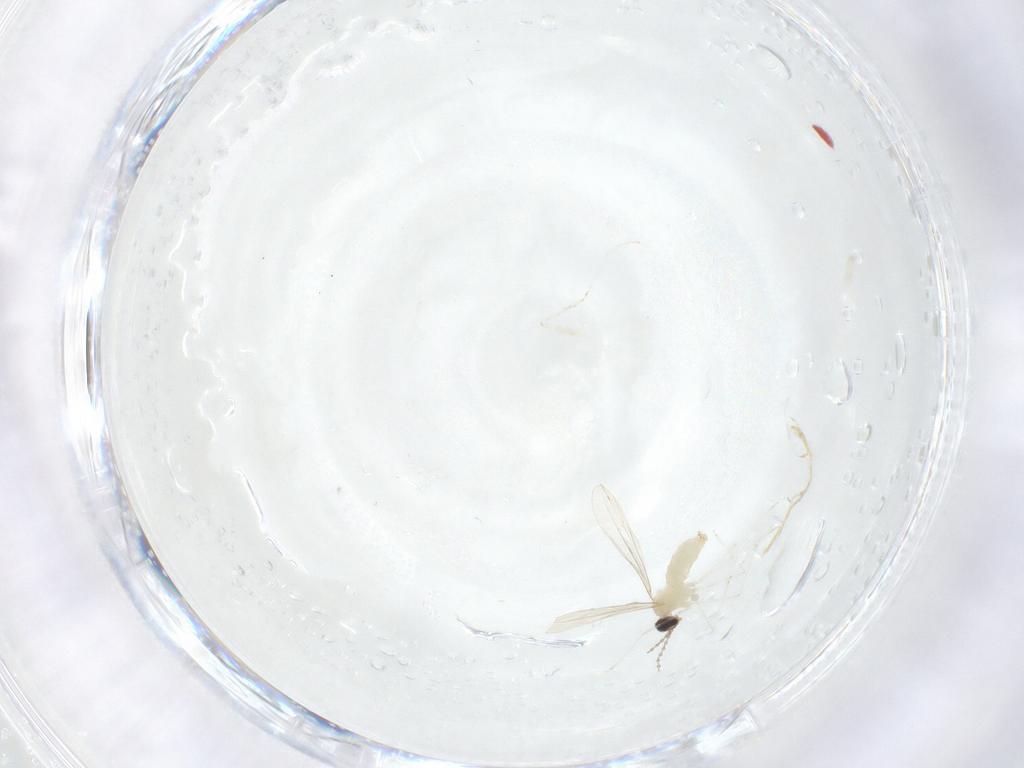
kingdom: Animalia
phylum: Arthropoda
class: Insecta
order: Diptera
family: Cecidomyiidae
